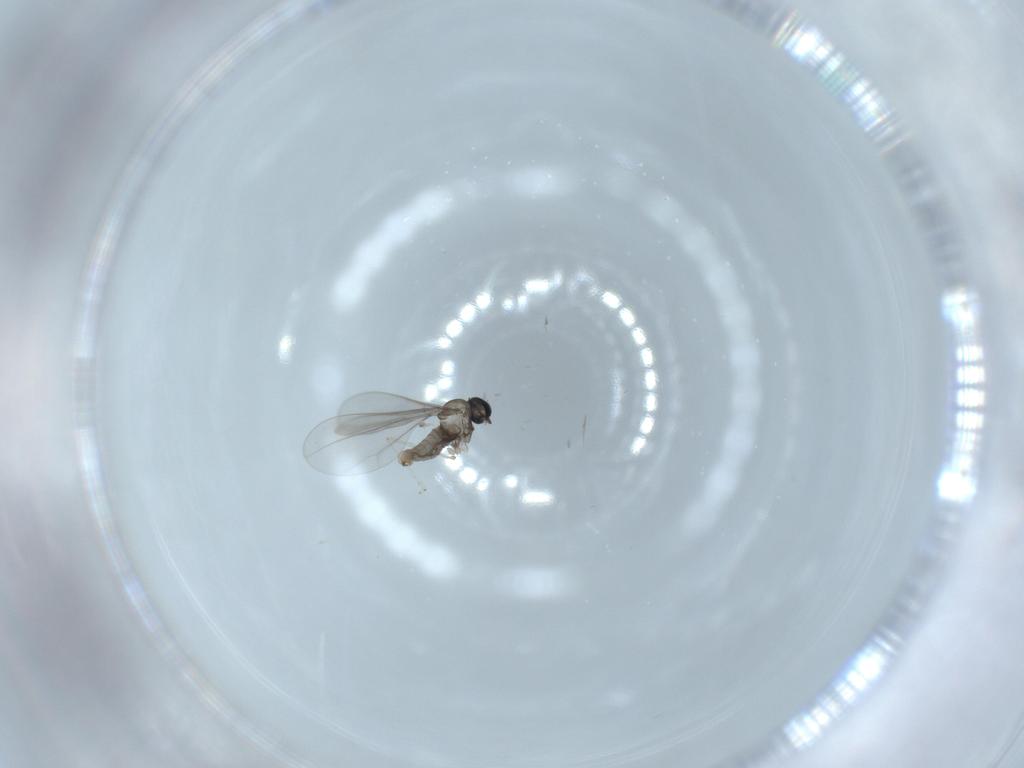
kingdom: Animalia
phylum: Arthropoda
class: Insecta
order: Diptera
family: Cecidomyiidae
